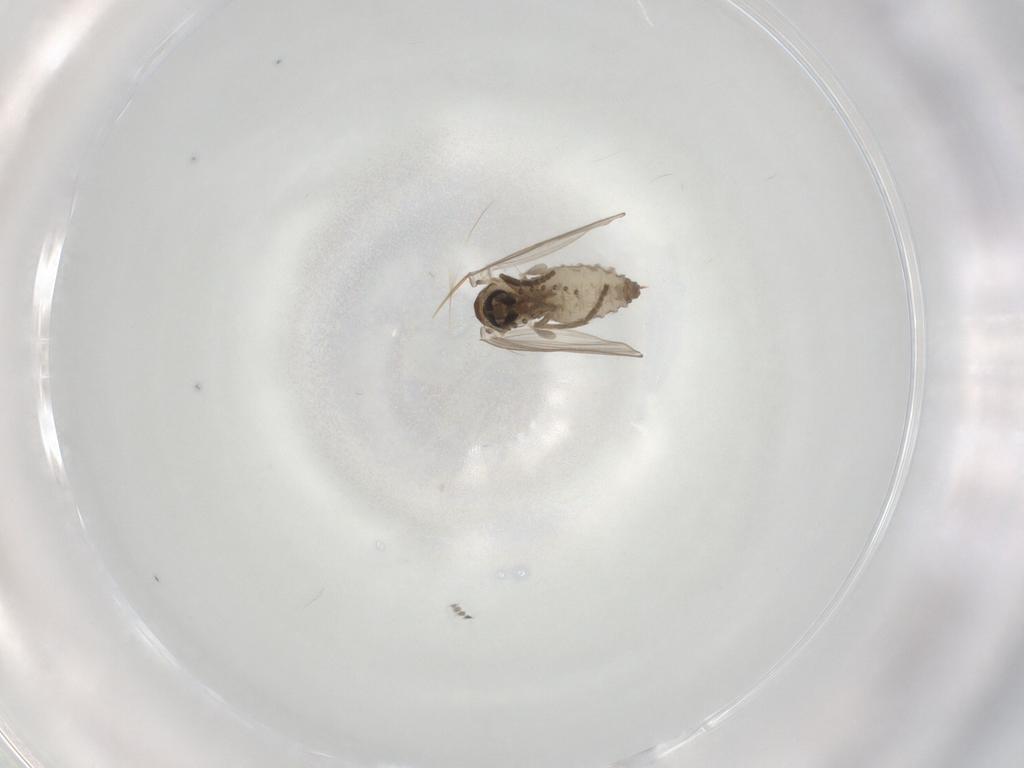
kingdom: Animalia
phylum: Arthropoda
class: Insecta
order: Diptera
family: Psychodidae
